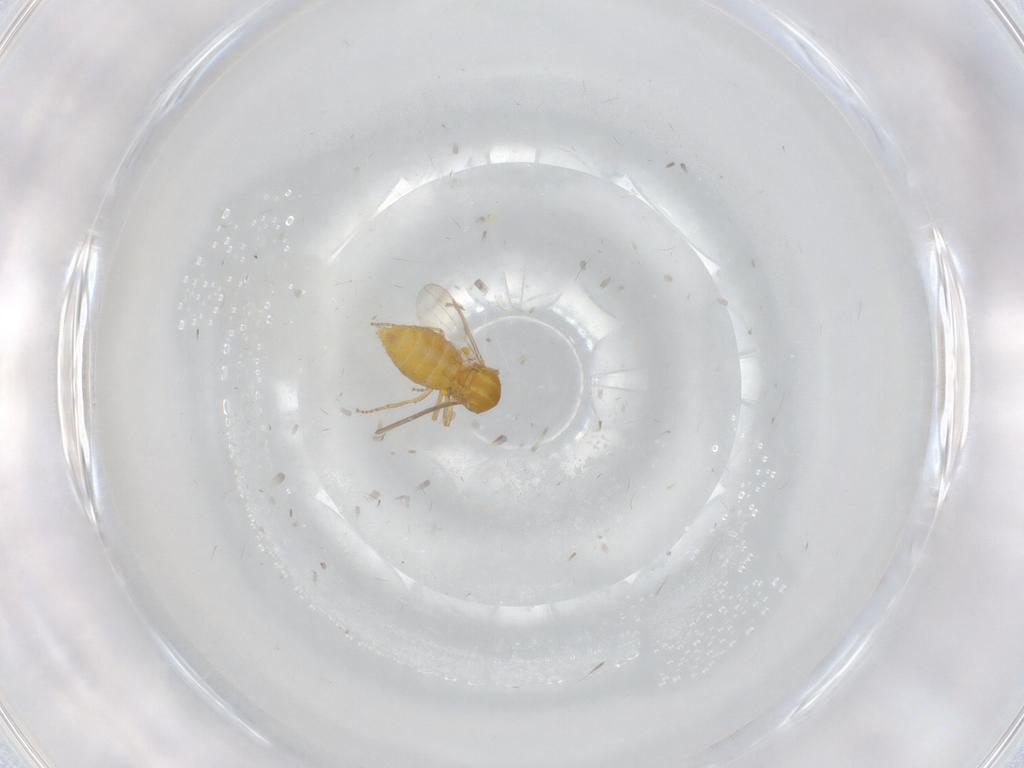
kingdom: Animalia
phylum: Arthropoda
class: Insecta
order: Diptera
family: Ceratopogonidae
